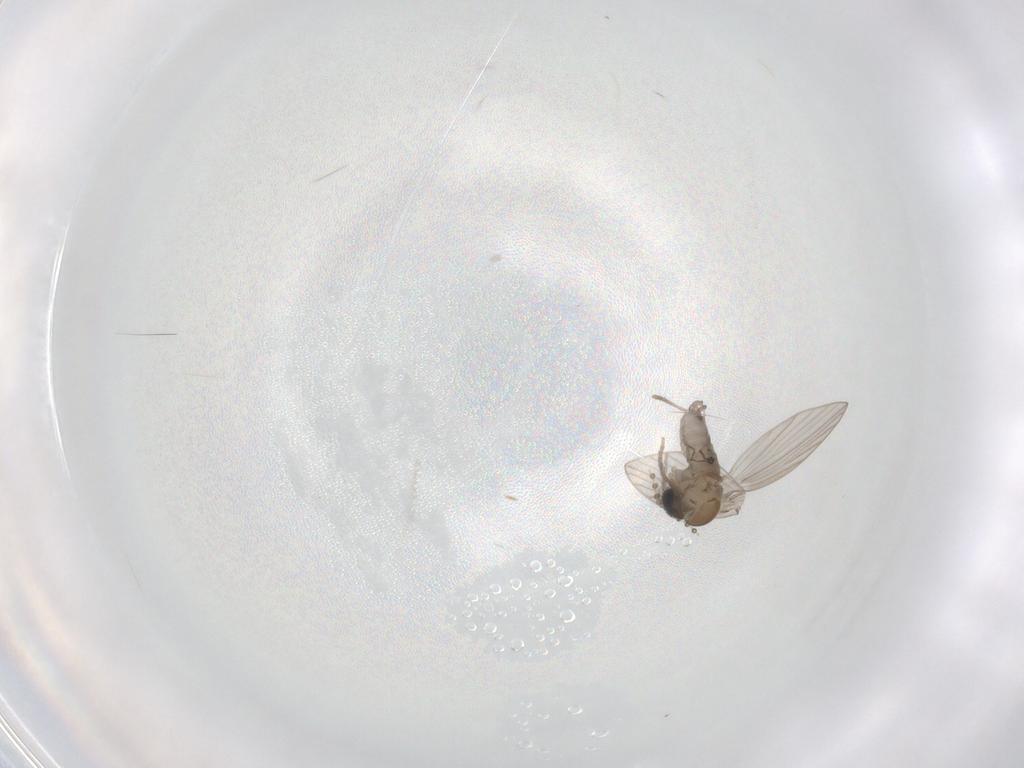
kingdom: Animalia
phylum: Arthropoda
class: Insecta
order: Diptera
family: Psychodidae
